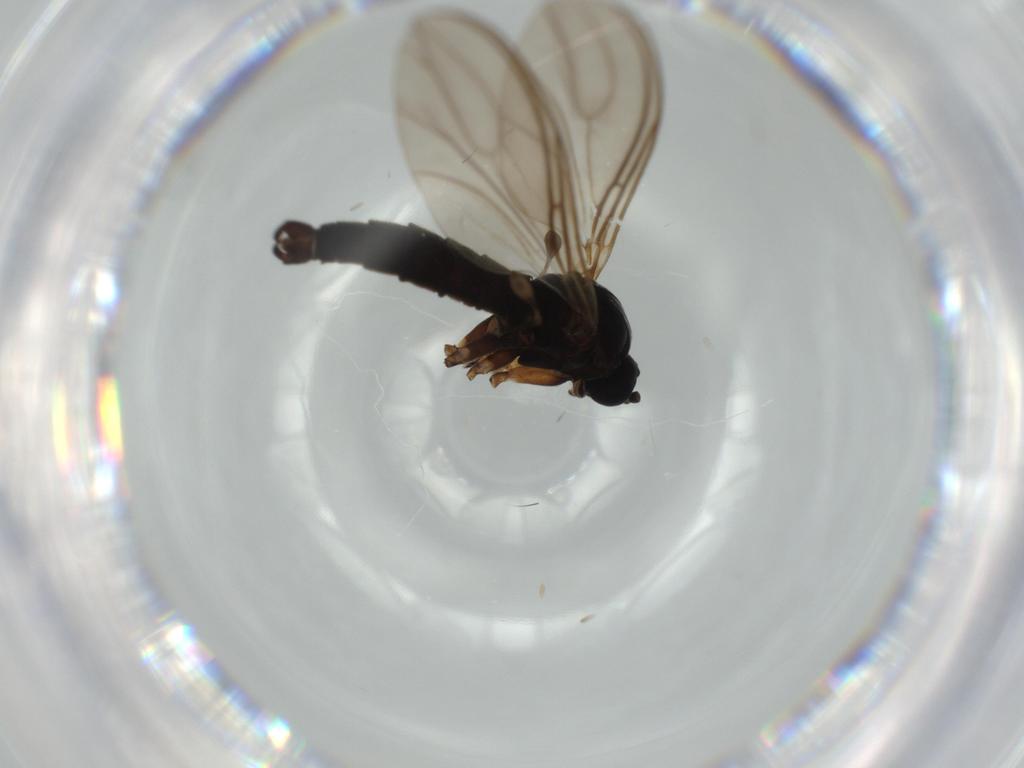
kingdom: Animalia
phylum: Arthropoda
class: Insecta
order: Diptera
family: Sciaridae
